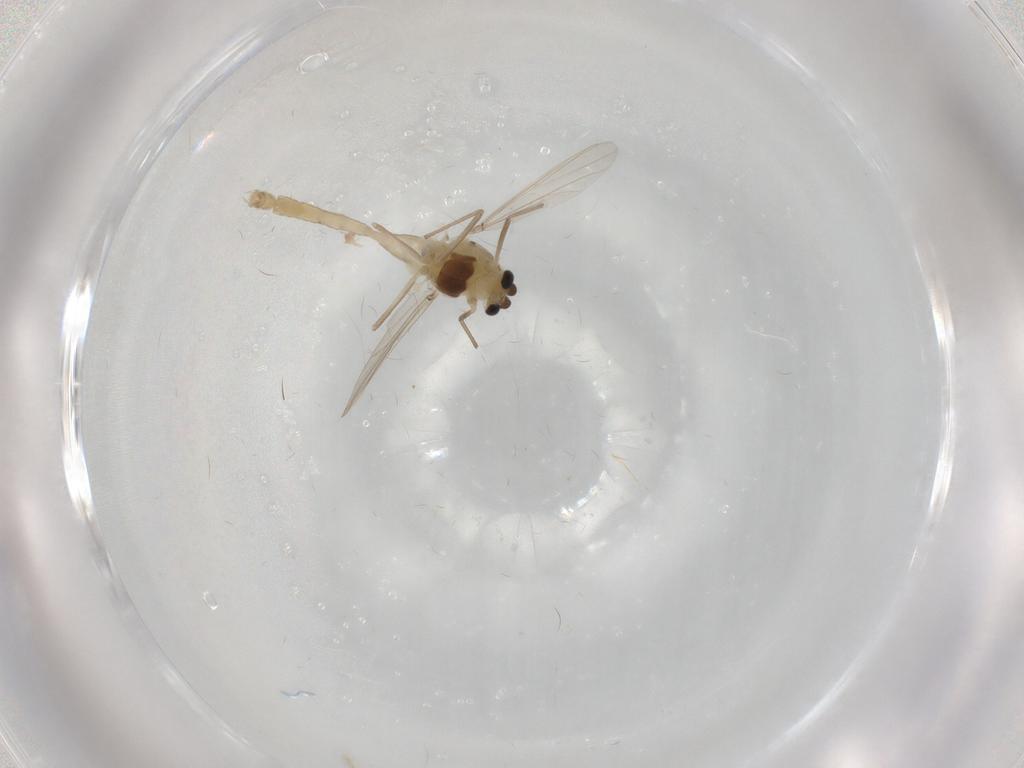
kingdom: Animalia
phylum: Arthropoda
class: Insecta
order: Diptera
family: Chironomidae
